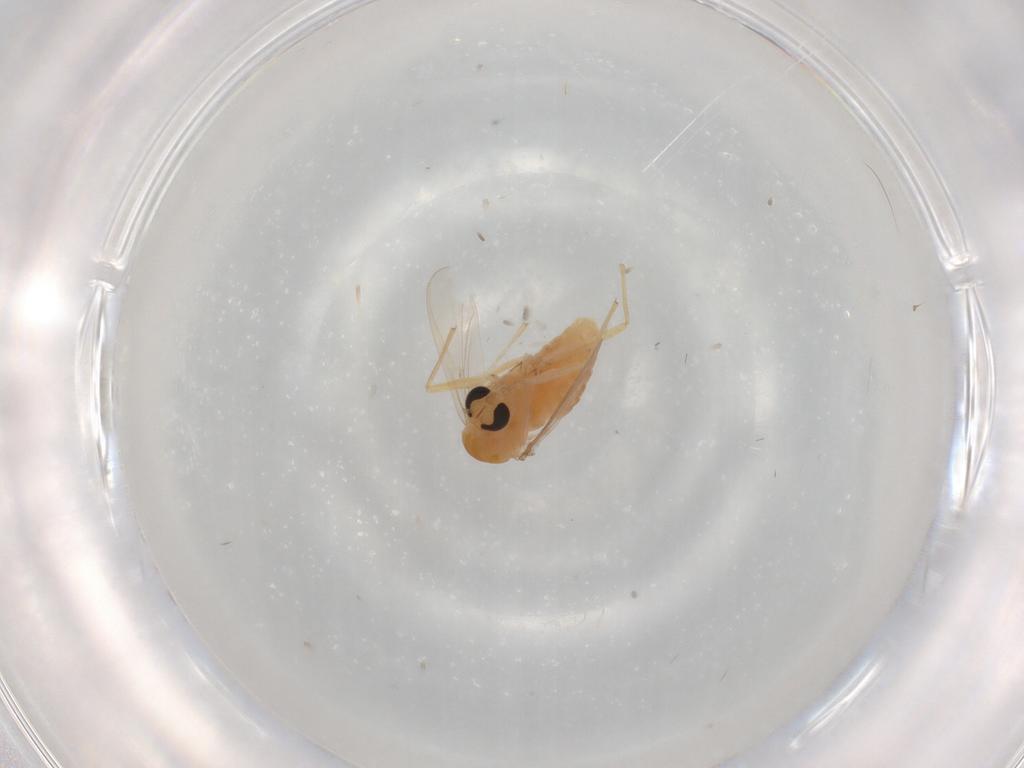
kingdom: Animalia
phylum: Arthropoda
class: Insecta
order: Diptera
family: Chironomidae
